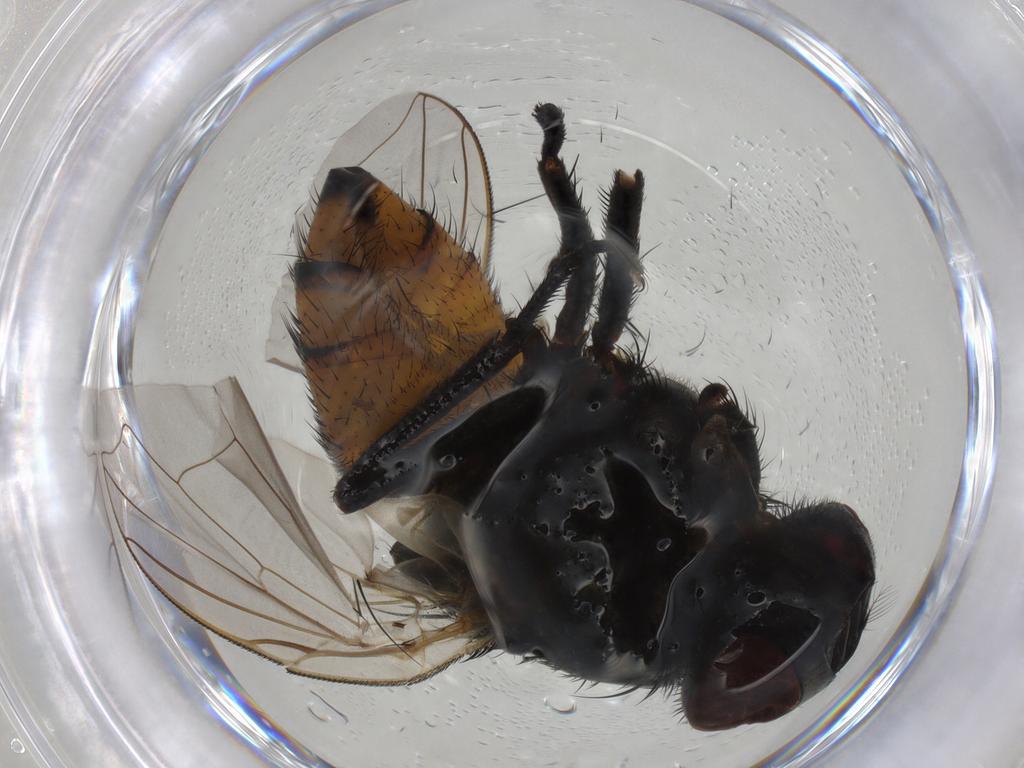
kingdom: Animalia
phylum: Arthropoda
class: Insecta
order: Diptera
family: Muscidae
